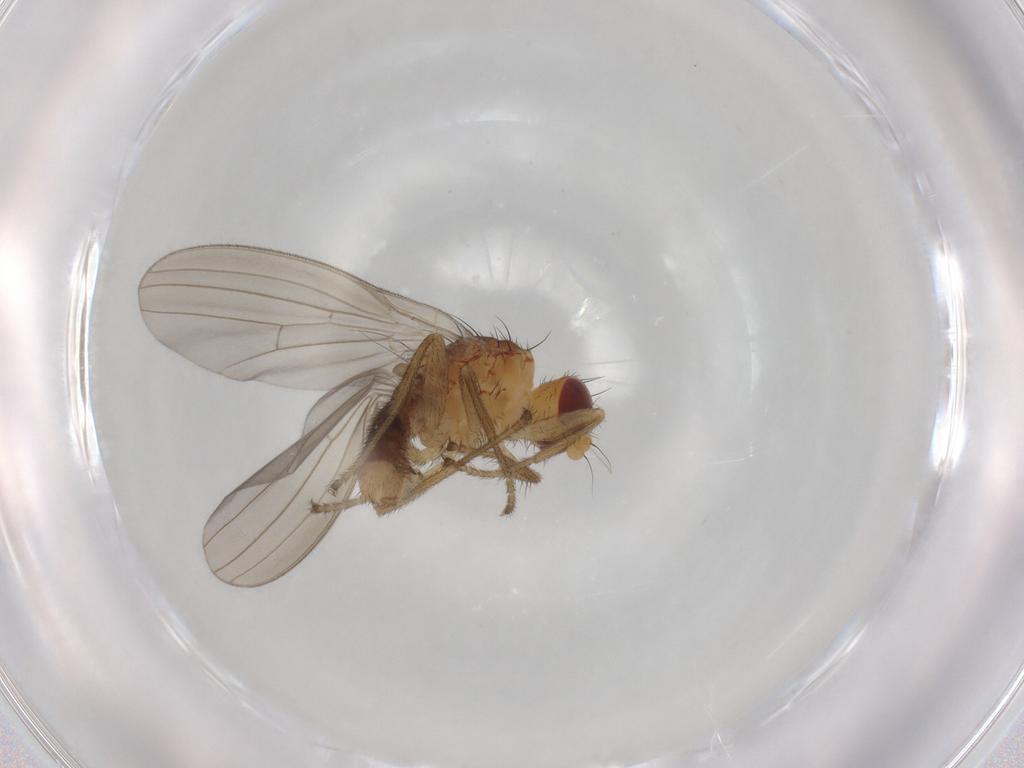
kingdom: Animalia
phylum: Arthropoda
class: Insecta
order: Diptera
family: Natalimyzidae
